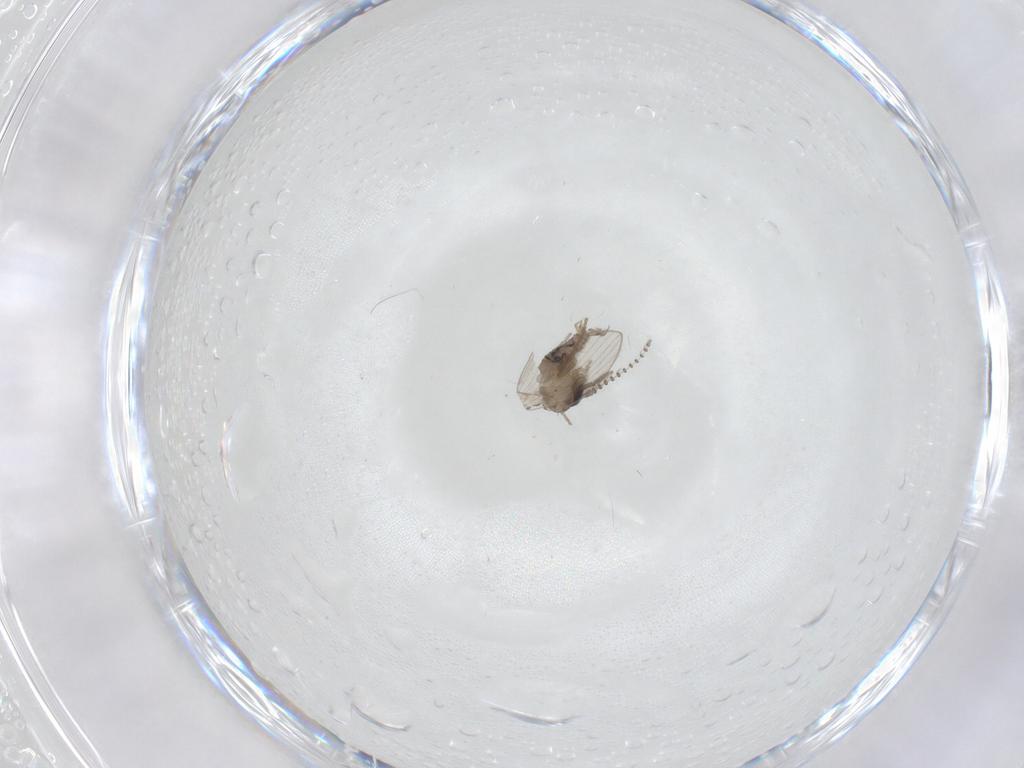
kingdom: Animalia
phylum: Arthropoda
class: Insecta
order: Diptera
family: Psychodidae
